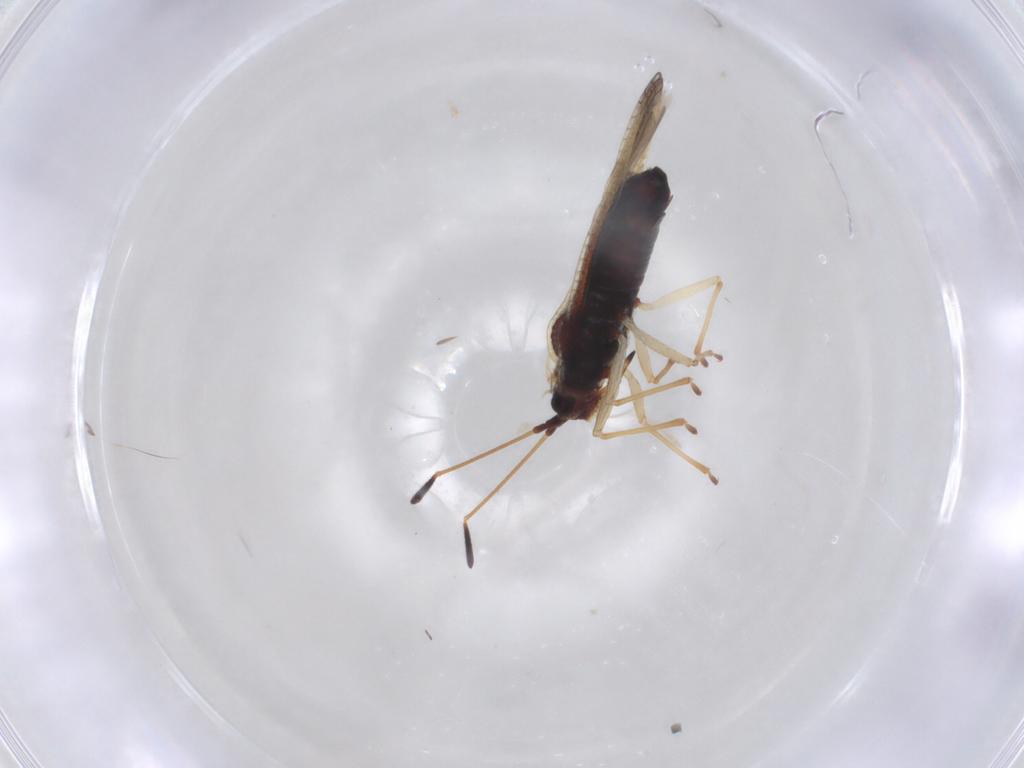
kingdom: Animalia
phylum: Arthropoda
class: Insecta
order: Hemiptera
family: Tingidae
